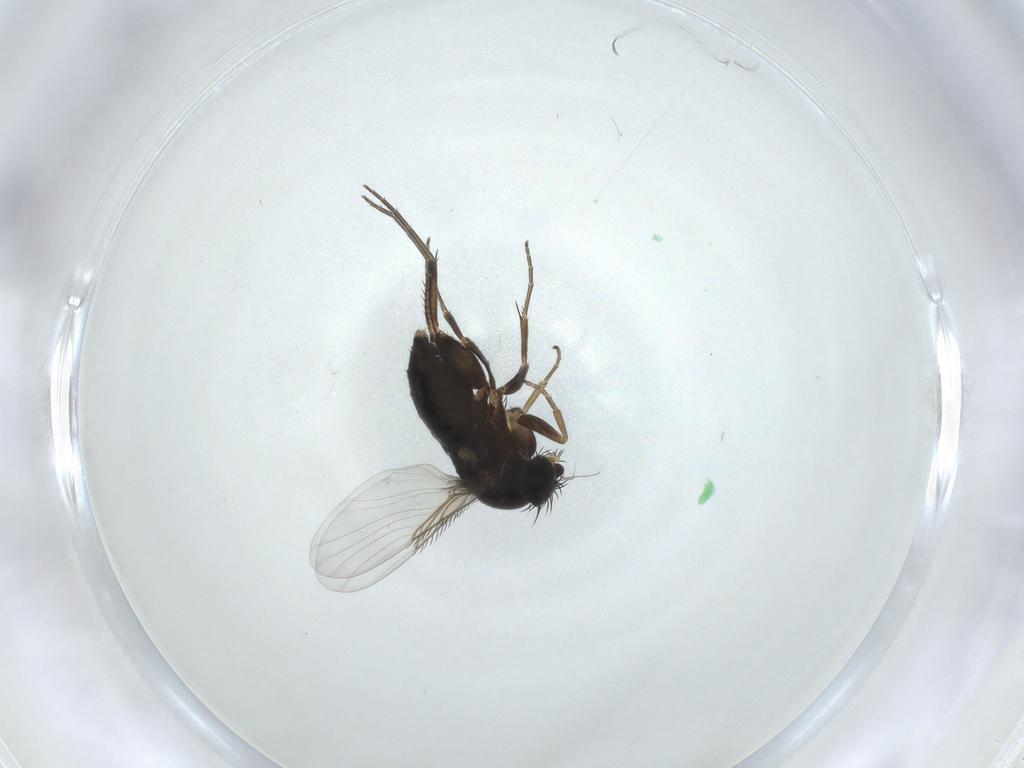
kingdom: Animalia
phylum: Arthropoda
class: Insecta
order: Diptera
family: Phoridae
